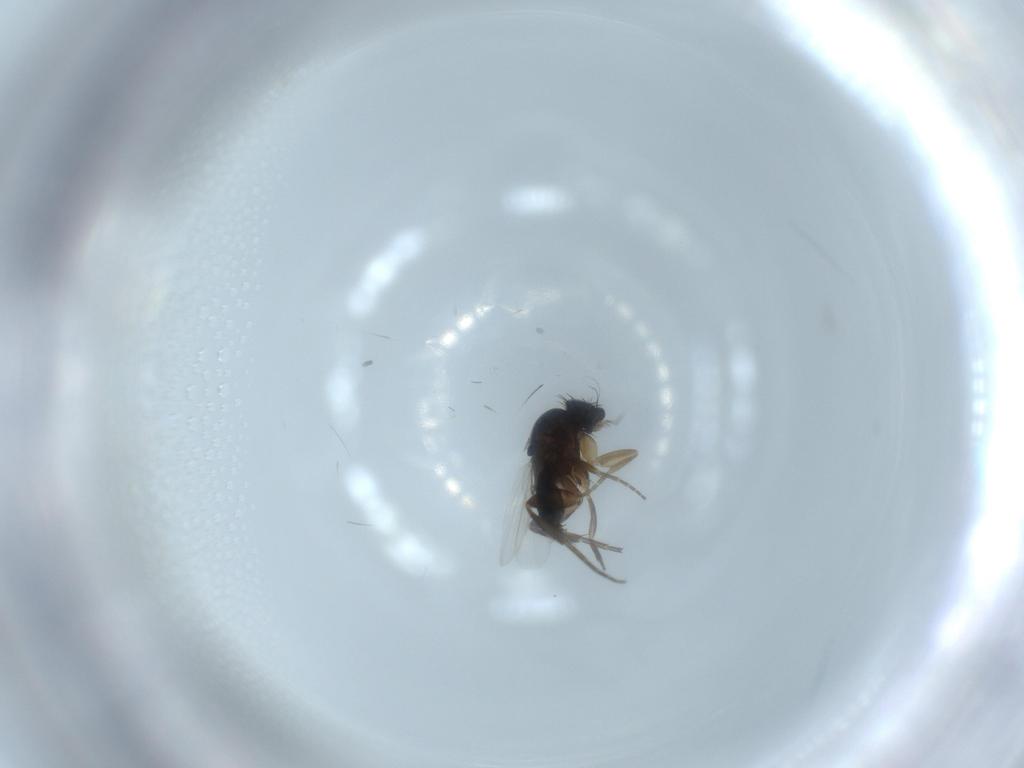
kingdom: Animalia
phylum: Arthropoda
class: Insecta
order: Diptera
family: Phoridae
